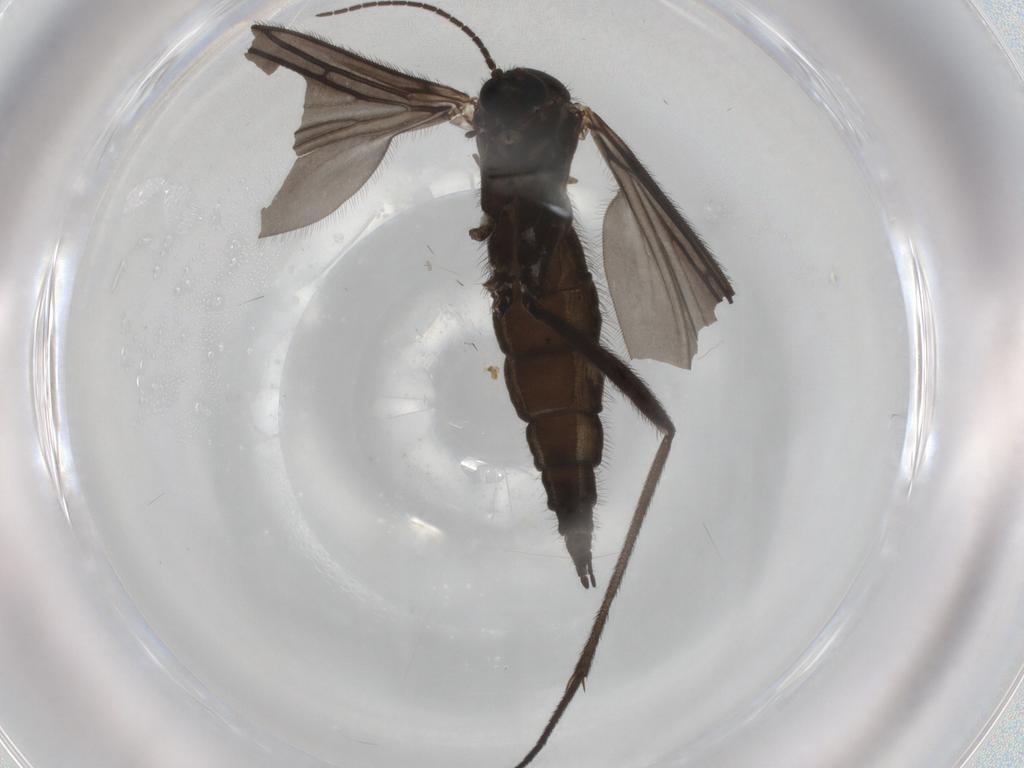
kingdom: Animalia
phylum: Arthropoda
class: Insecta
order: Diptera
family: Sciaridae
